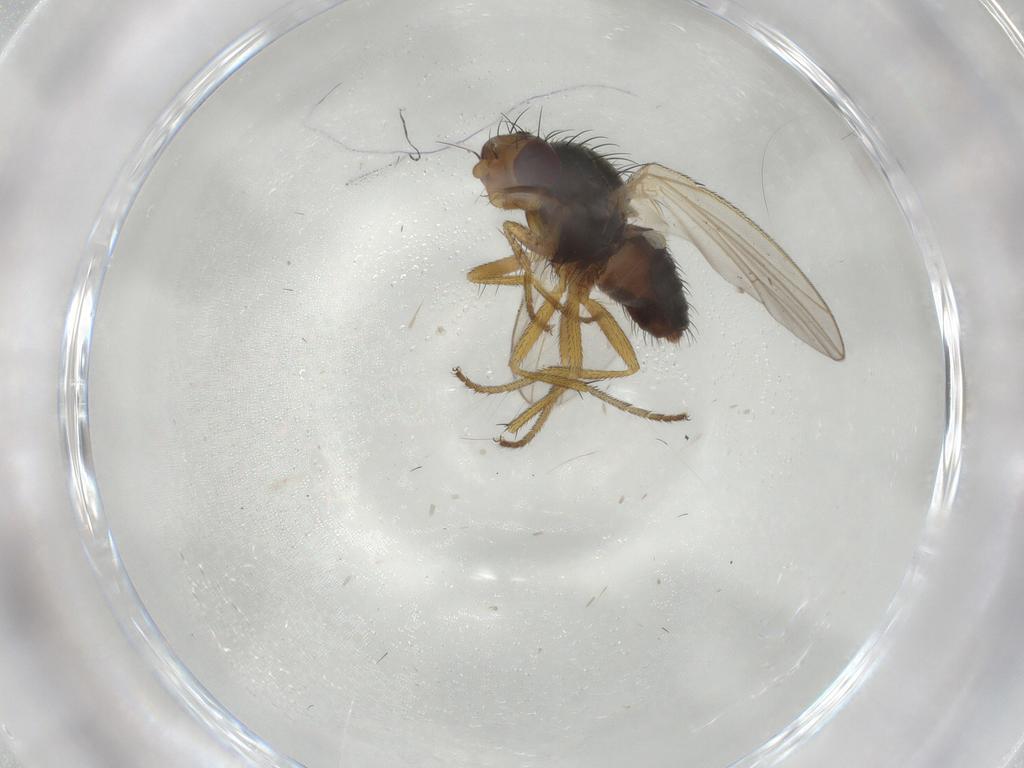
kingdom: Animalia
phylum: Arthropoda
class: Insecta
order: Diptera
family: Heleomyzidae
